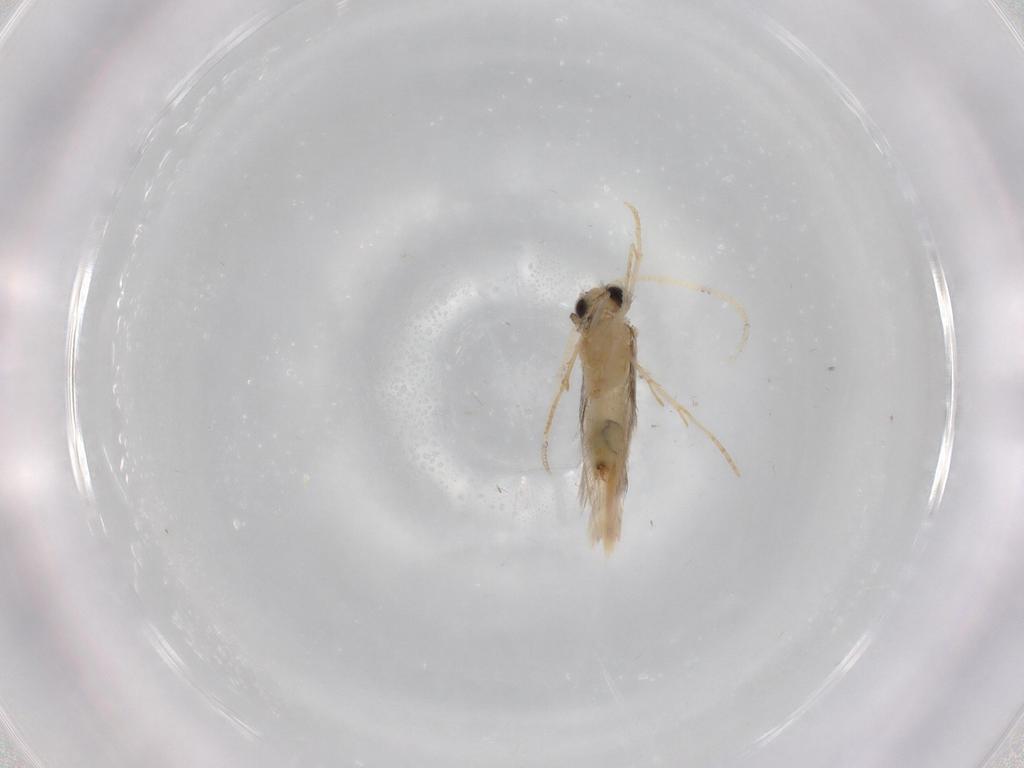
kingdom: Animalia
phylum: Arthropoda
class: Insecta
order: Trichoptera
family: Hydroptilidae
